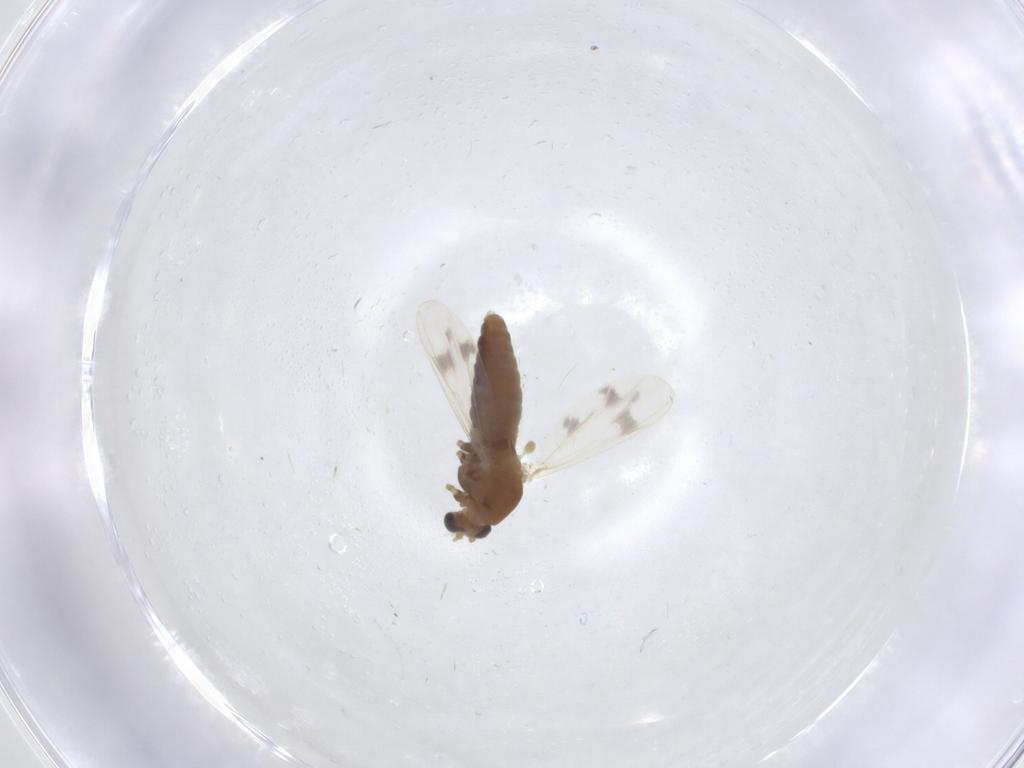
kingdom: Animalia
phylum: Arthropoda
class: Insecta
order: Diptera
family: Chironomidae
